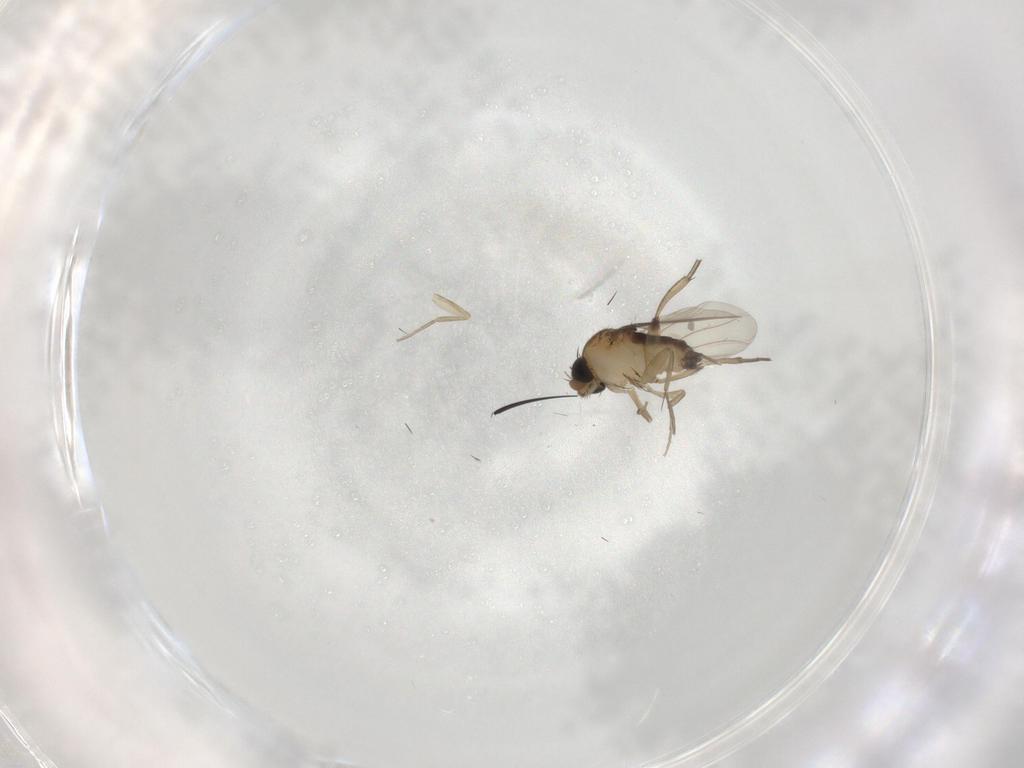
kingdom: Animalia
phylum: Arthropoda
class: Insecta
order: Diptera
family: Phoridae
